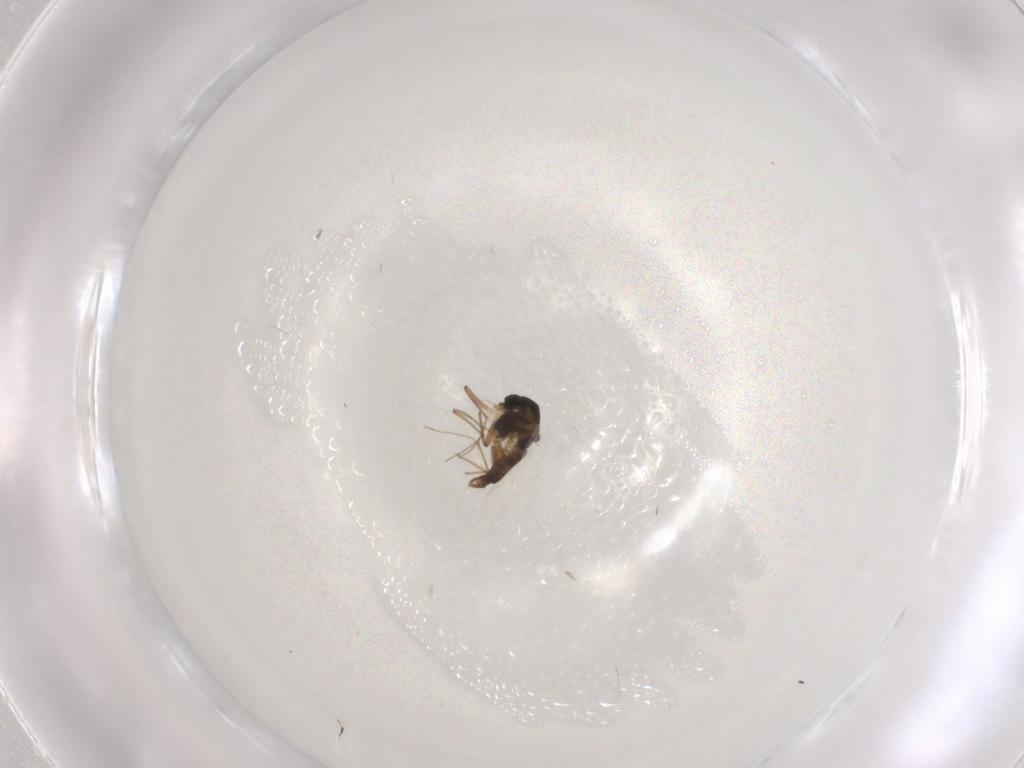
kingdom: Animalia
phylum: Arthropoda
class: Insecta
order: Diptera
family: Chironomidae
